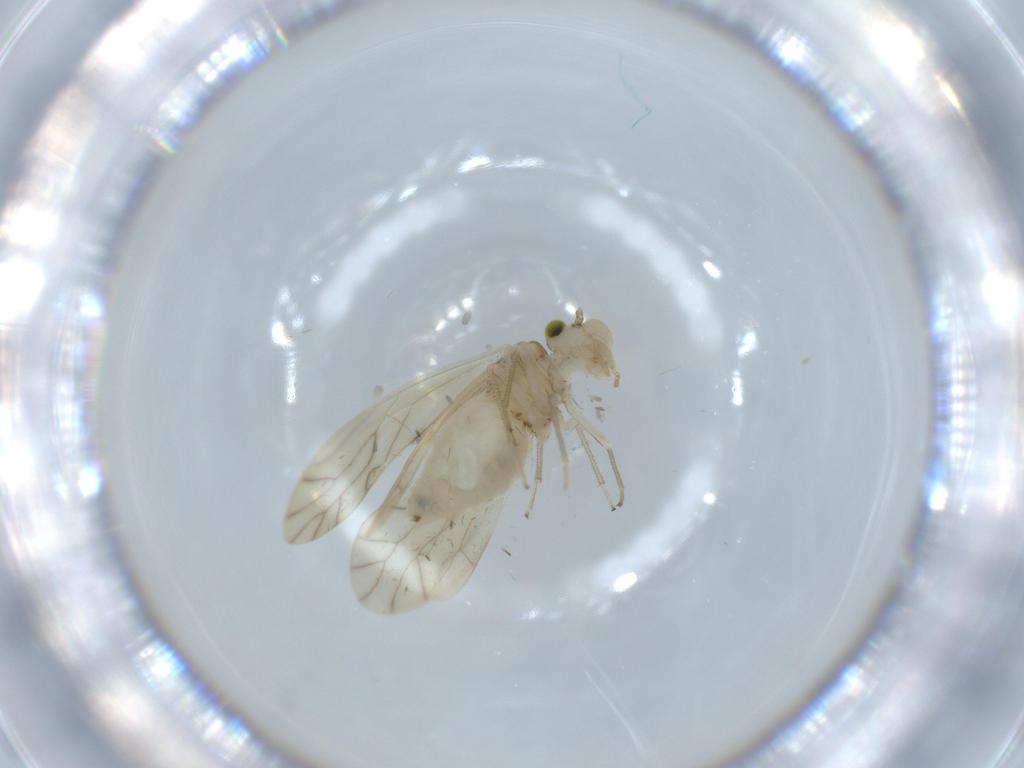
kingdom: Animalia
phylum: Arthropoda
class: Insecta
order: Psocodea
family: Caeciliusidae
